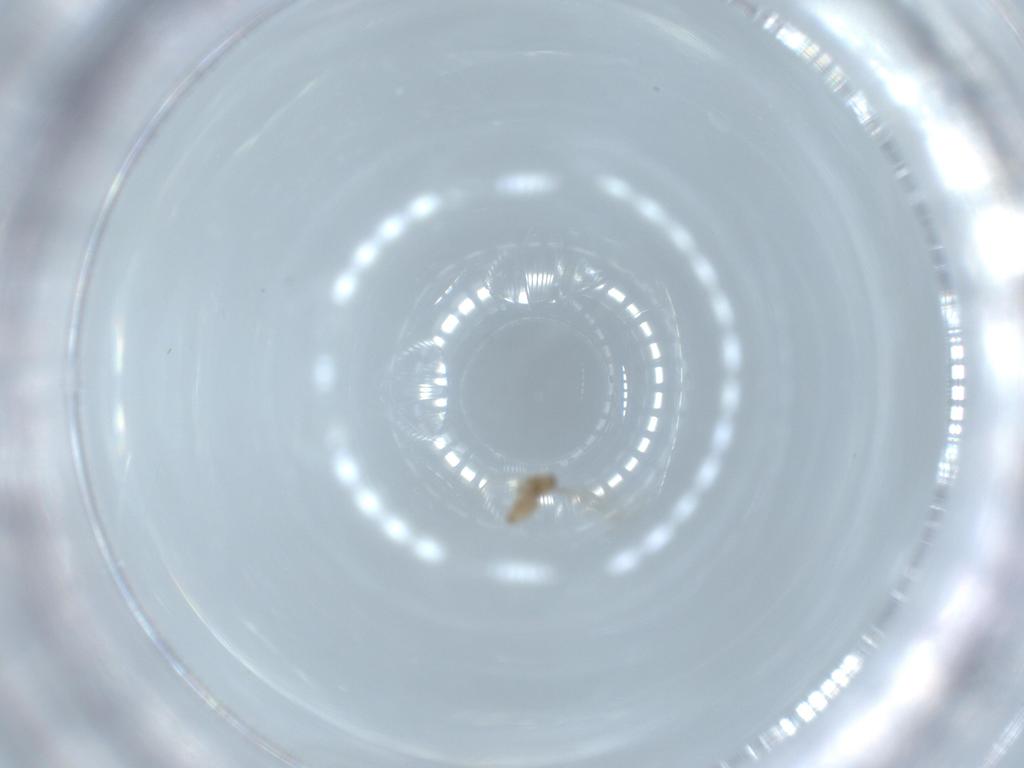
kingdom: Animalia
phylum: Arthropoda
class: Insecta
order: Diptera
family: Cecidomyiidae
